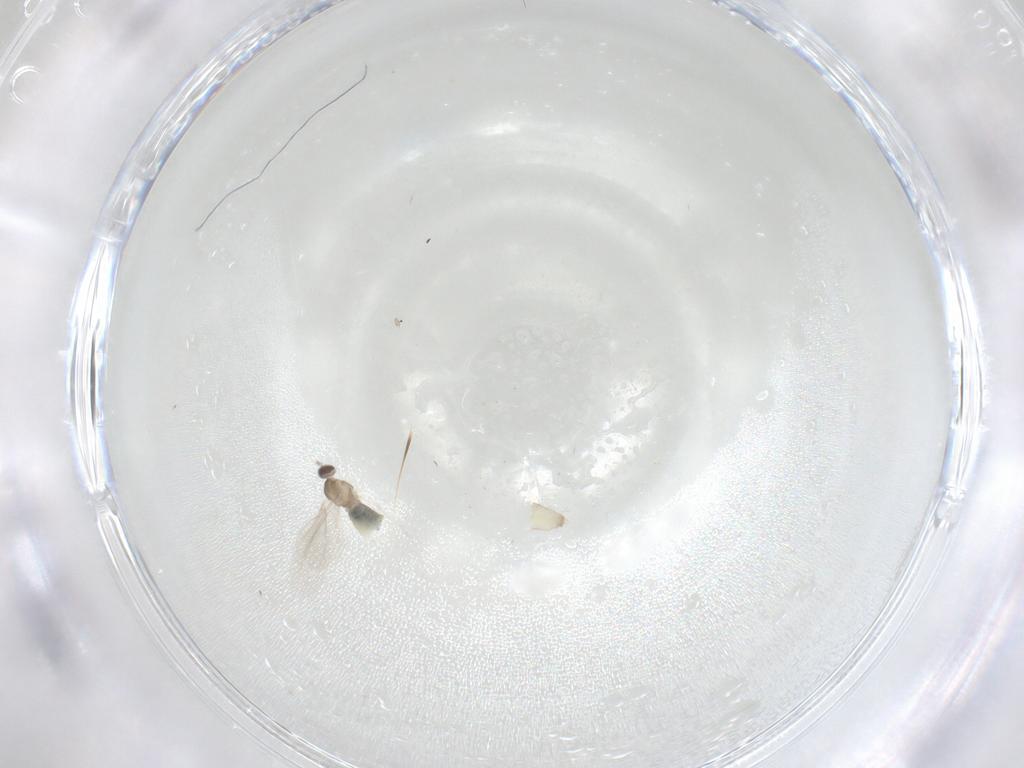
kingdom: Animalia
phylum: Arthropoda
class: Insecta
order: Diptera
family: Cecidomyiidae
